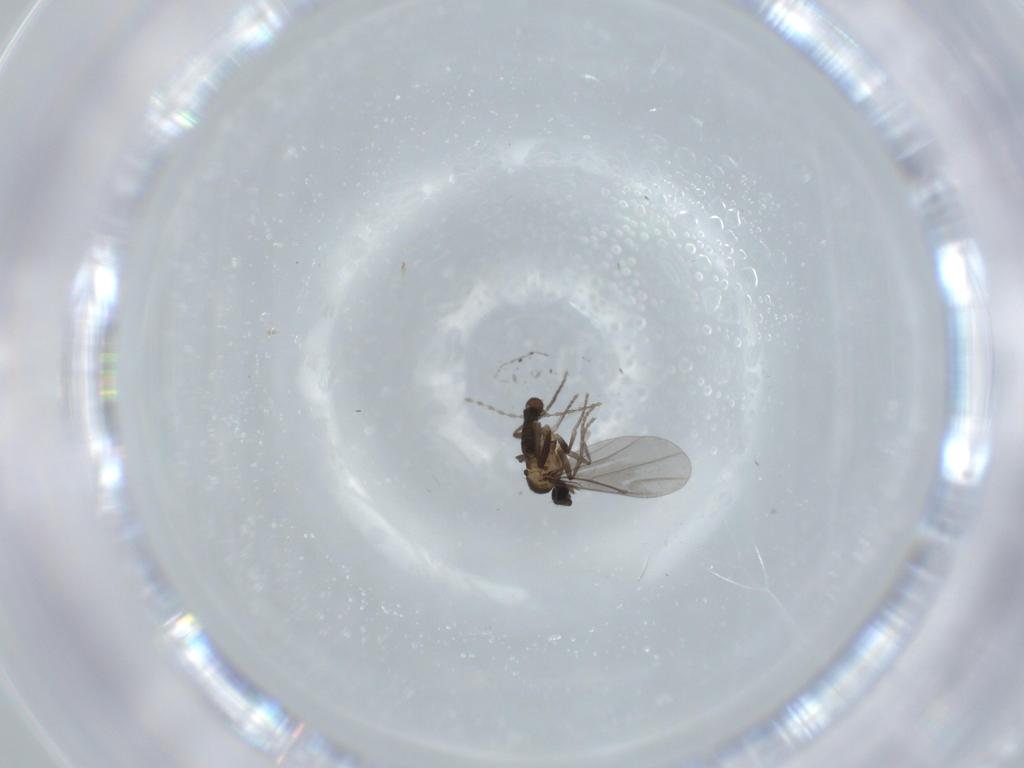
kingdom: Animalia
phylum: Arthropoda
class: Insecta
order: Diptera
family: Phoridae
